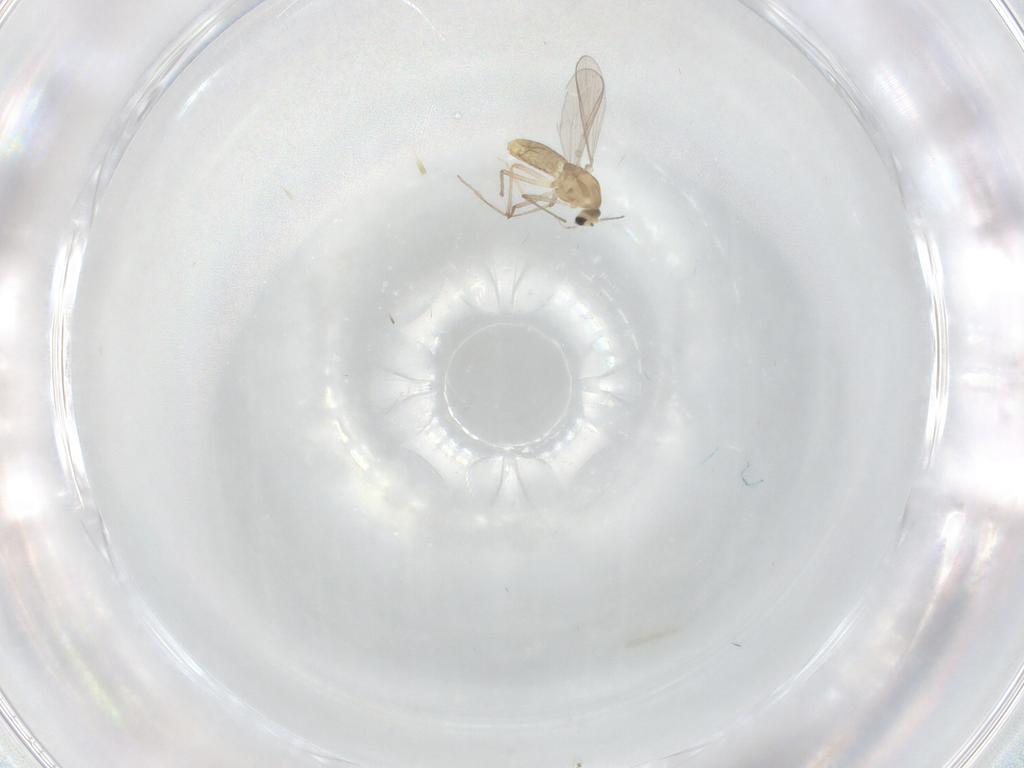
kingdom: Animalia
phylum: Arthropoda
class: Insecta
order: Diptera
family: Chironomidae
